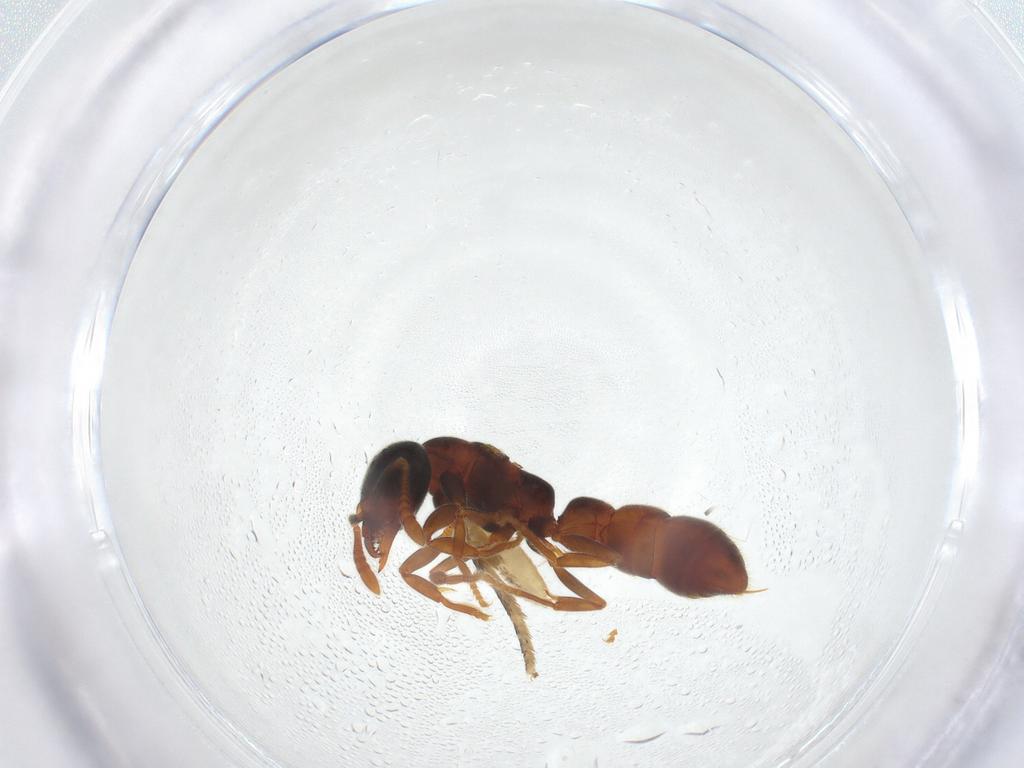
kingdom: Animalia
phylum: Arthropoda
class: Insecta
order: Hymenoptera
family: Formicidae
